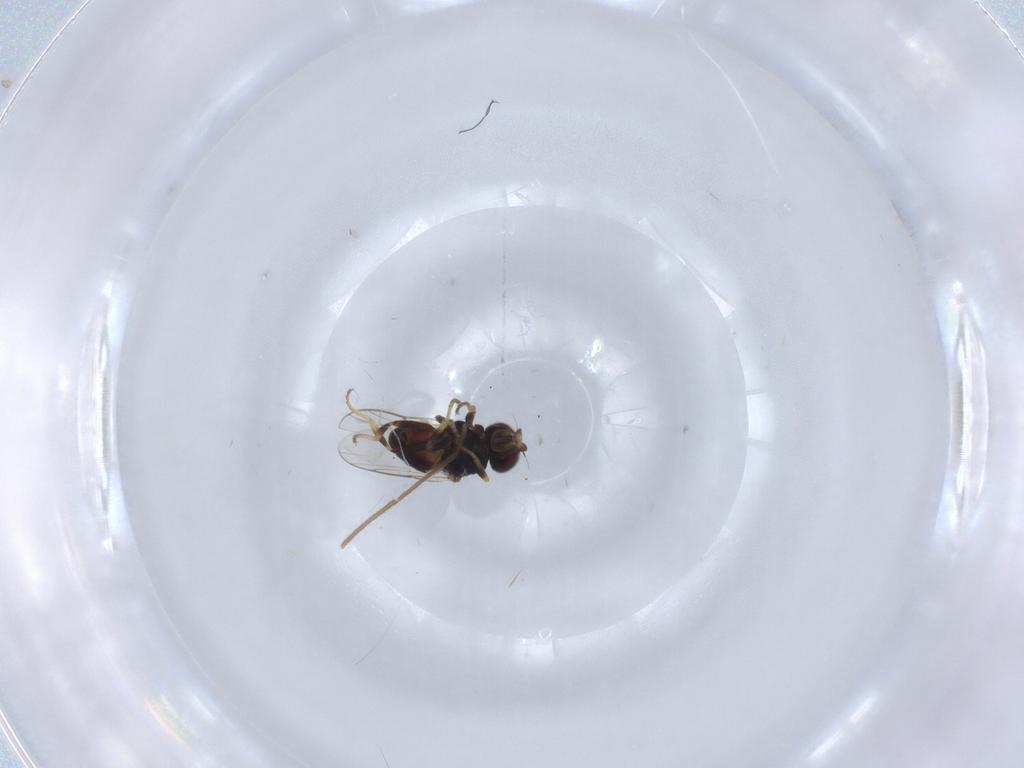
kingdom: Animalia
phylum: Arthropoda
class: Insecta
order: Diptera
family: Chloropidae
